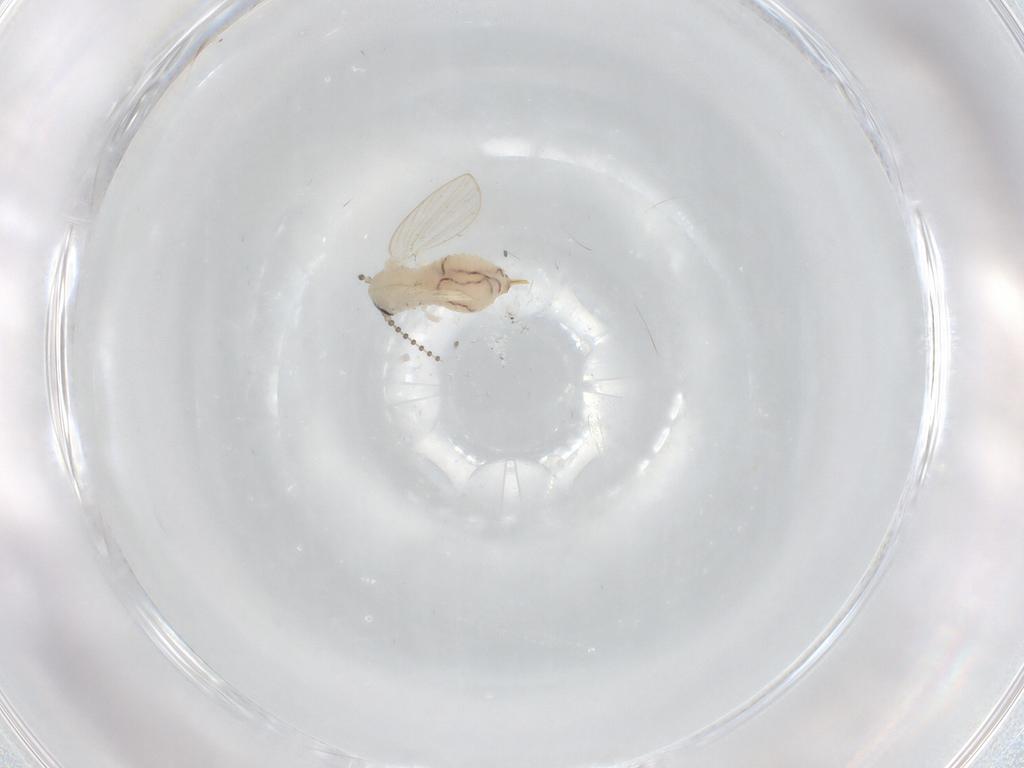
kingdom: Animalia
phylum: Arthropoda
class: Insecta
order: Diptera
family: Psychodidae
